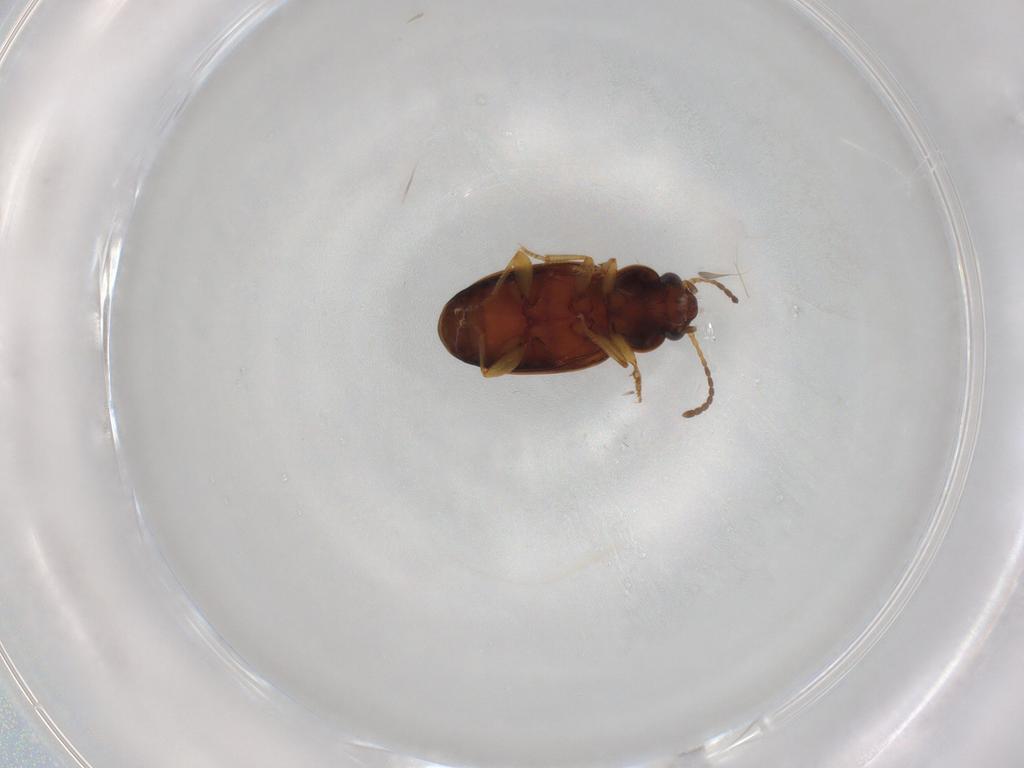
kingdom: Animalia
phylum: Arthropoda
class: Insecta
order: Coleoptera
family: Carabidae
